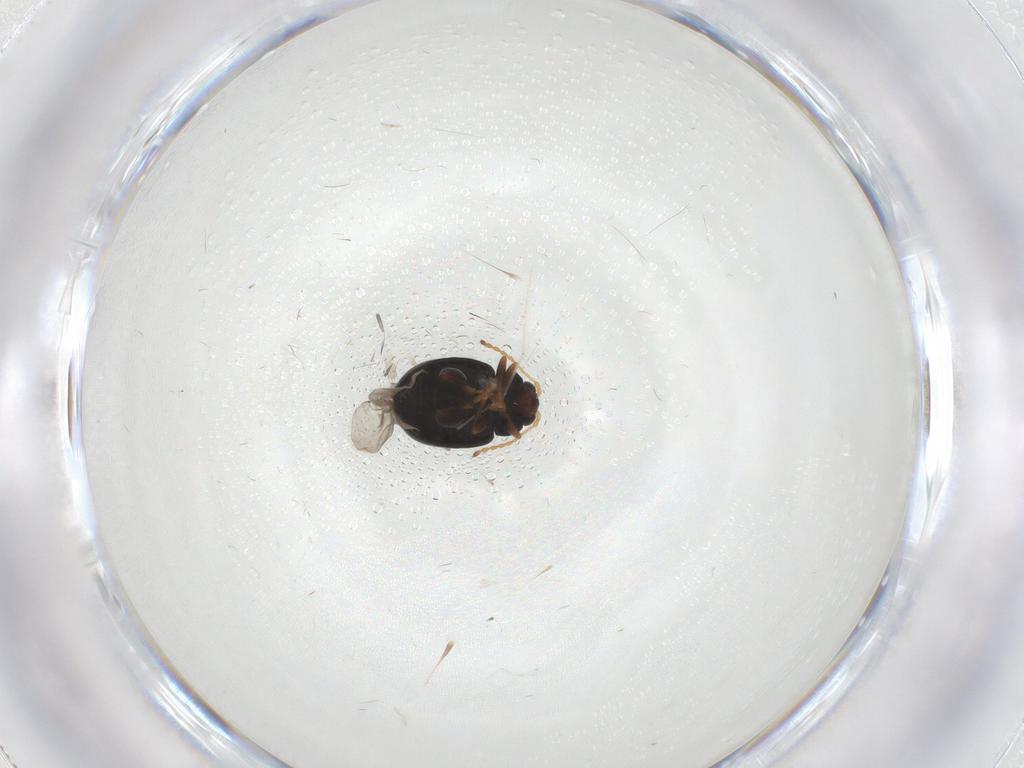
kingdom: Animalia
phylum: Arthropoda
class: Insecta
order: Coleoptera
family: Chrysomelidae
